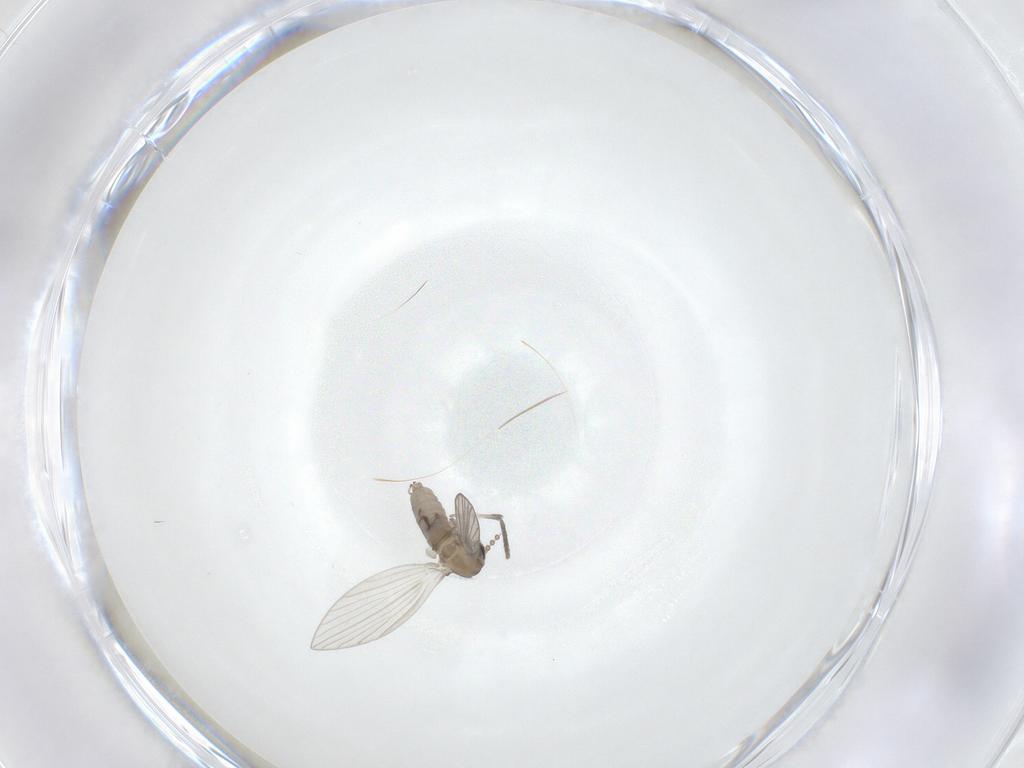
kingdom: Animalia
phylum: Arthropoda
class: Insecta
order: Diptera
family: Psychodidae
